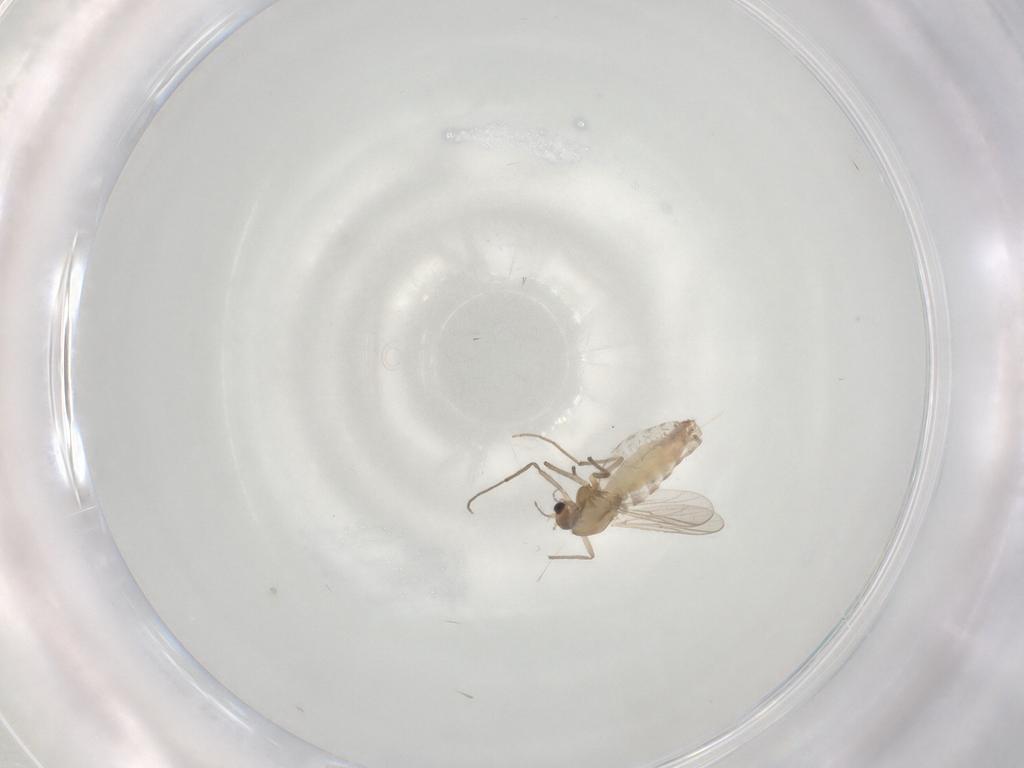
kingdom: Animalia
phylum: Arthropoda
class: Insecta
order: Diptera
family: Chironomidae
